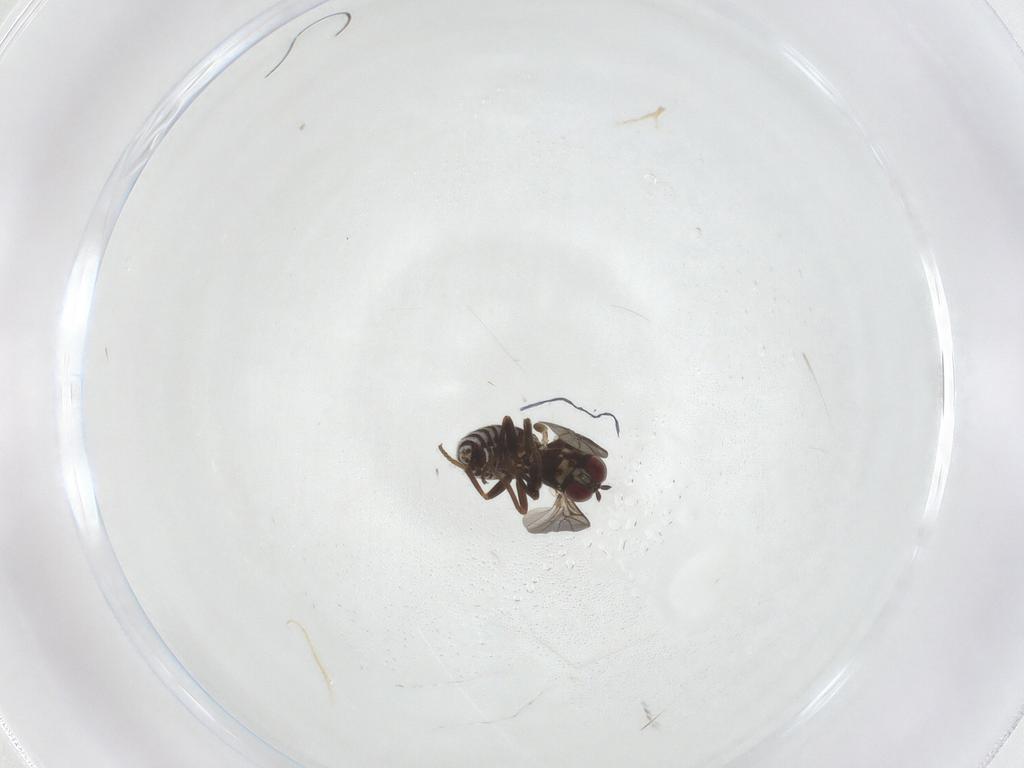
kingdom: Animalia
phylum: Arthropoda
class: Insecta
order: Diptera
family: Mythicomyiidae
